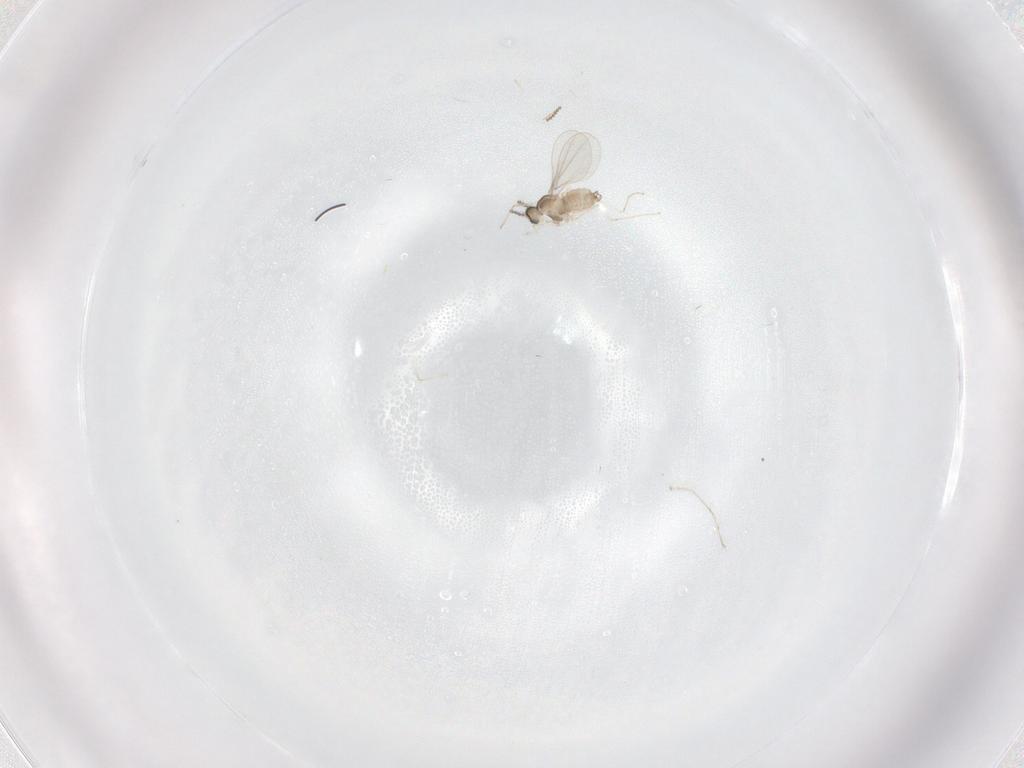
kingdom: Animalia
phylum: Arthropoda
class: Insecta
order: Diptera
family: Cecidomyiidae
